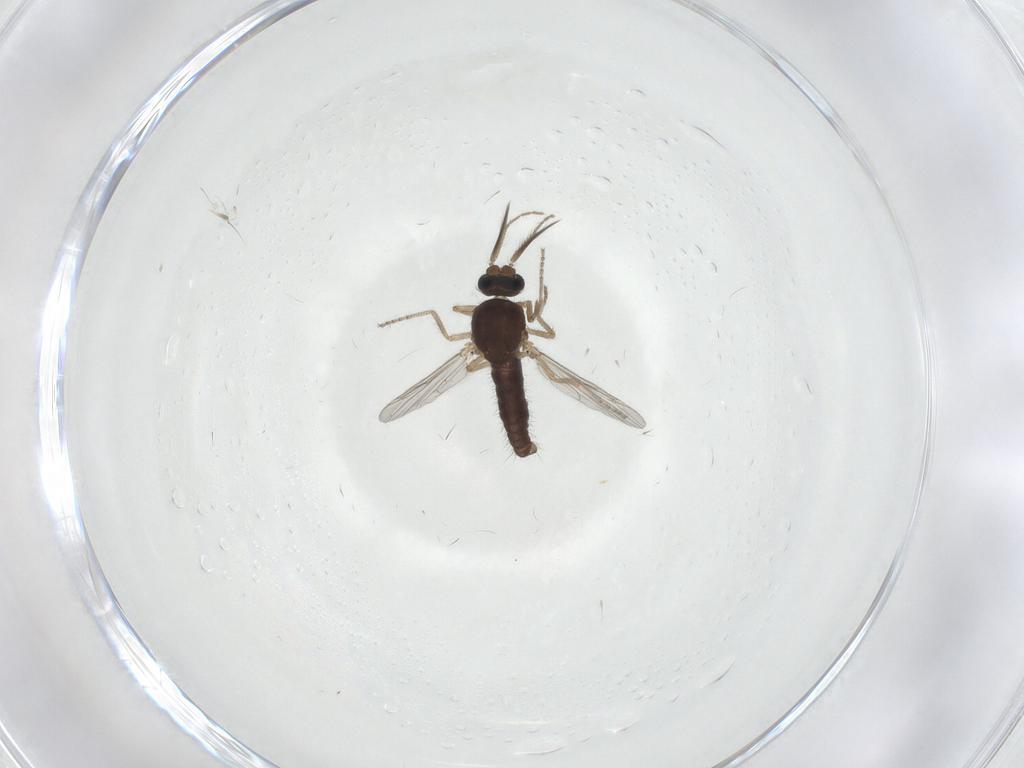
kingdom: Animalia
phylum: Arthropoda
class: Insecta
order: Diptera
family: Ceratopogonidae
